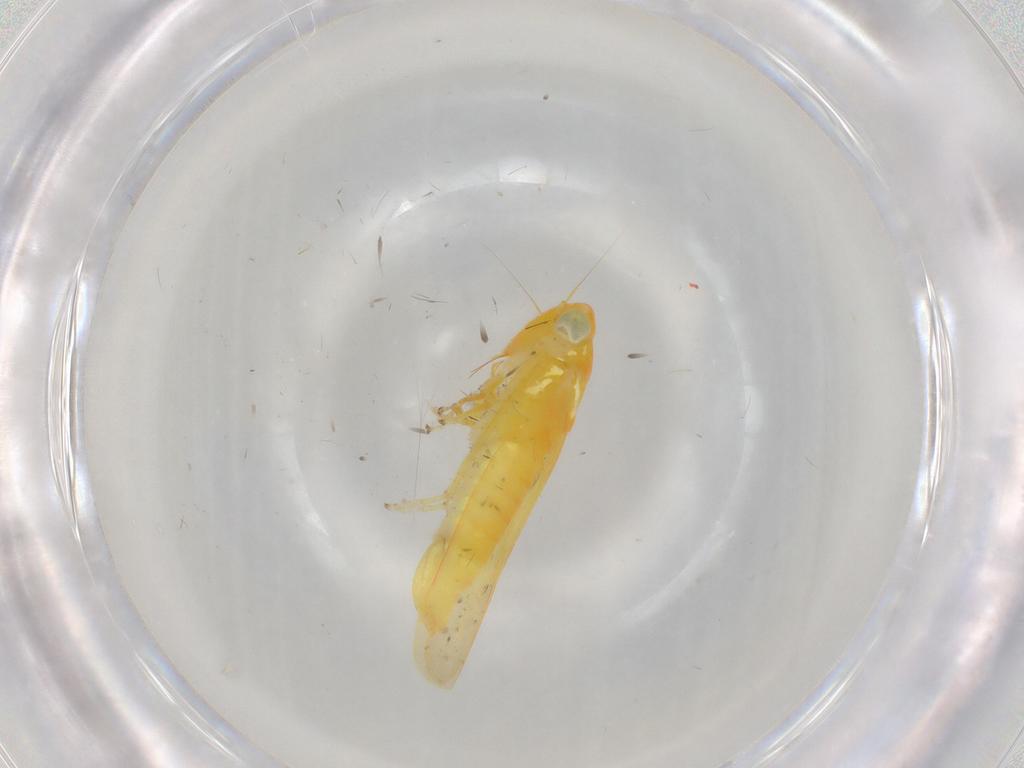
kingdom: Animalia
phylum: Arthropoda
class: Insecta
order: Hemiptera
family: Cicadellidae
